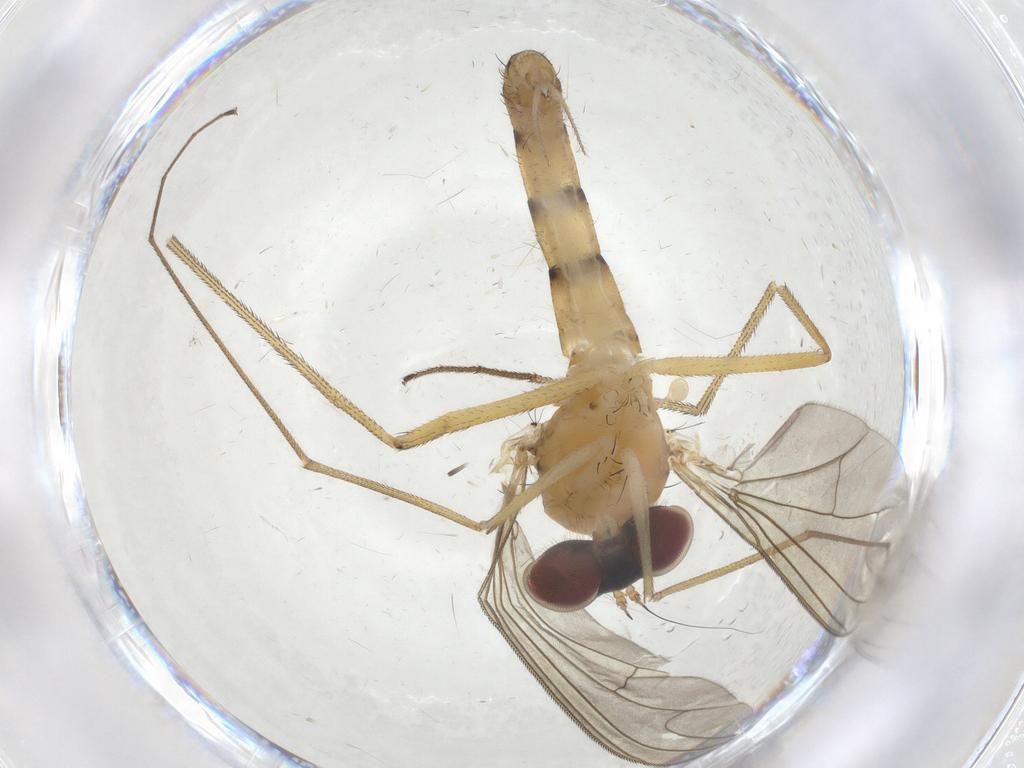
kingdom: Animalia
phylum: Arthropoda
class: Insecta
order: Diptera
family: Dolichopodidae
